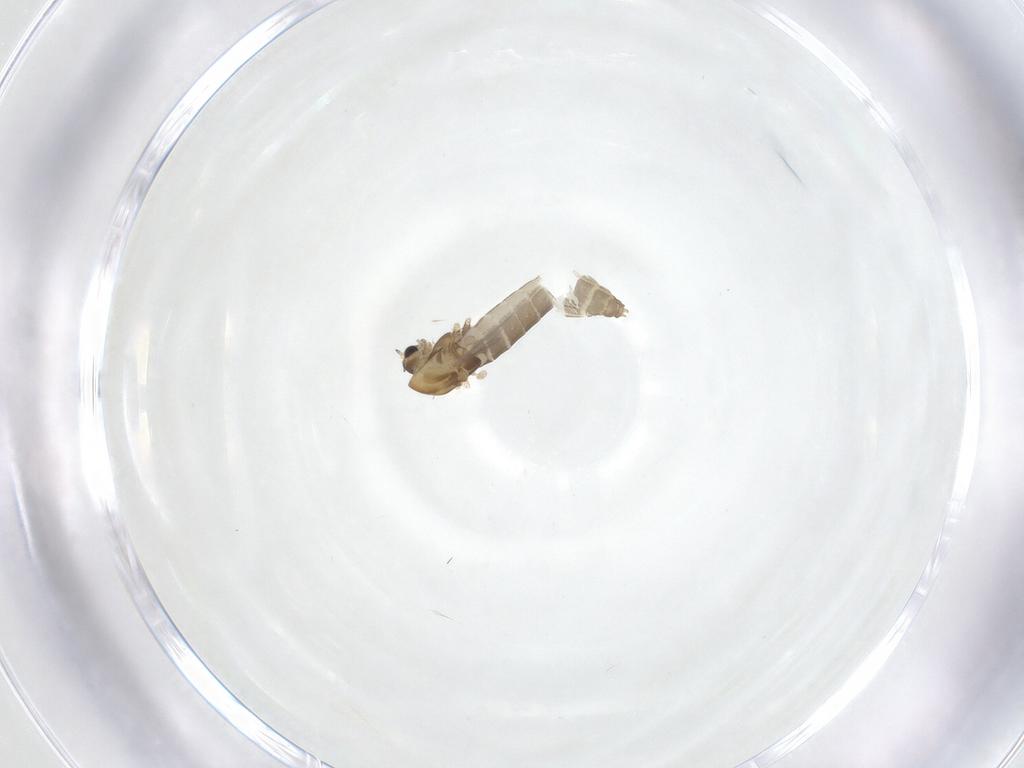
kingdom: Animalia
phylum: Arthropoda
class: Insecta
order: Diptera
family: Chironomidae
